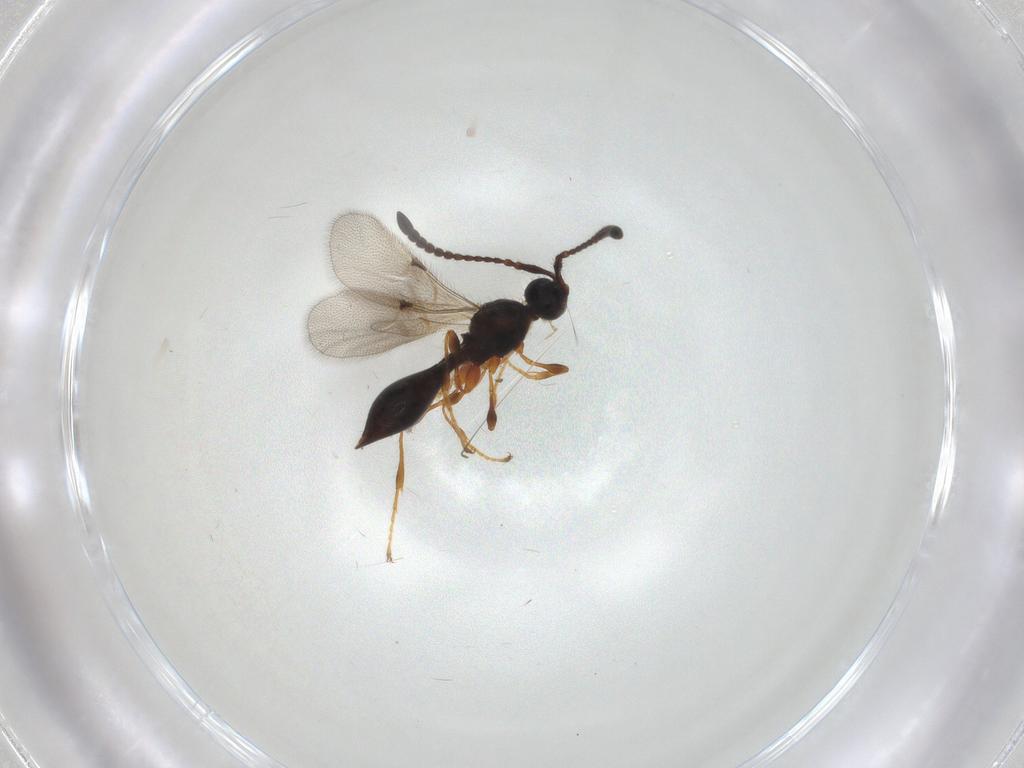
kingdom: Animalia
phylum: Arthropoda
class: Insecta
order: Hymenoptera
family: Diapriidae
